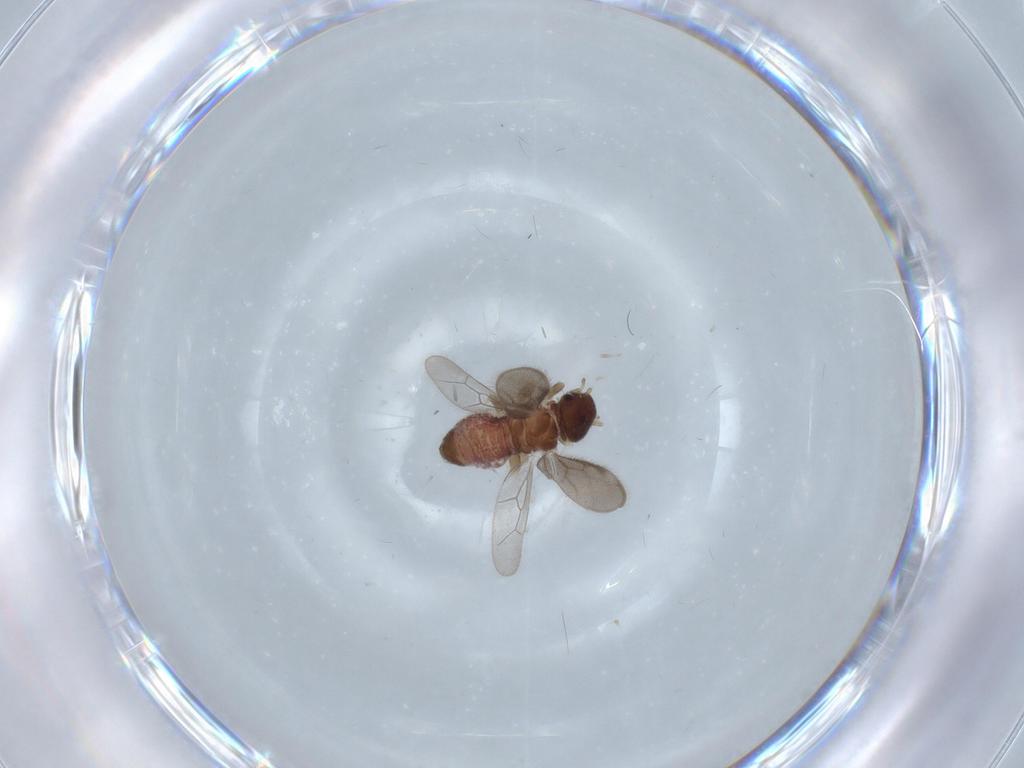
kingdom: Animalia
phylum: Arthropoda
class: Insecta
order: Psocodea
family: Archipsocidae
